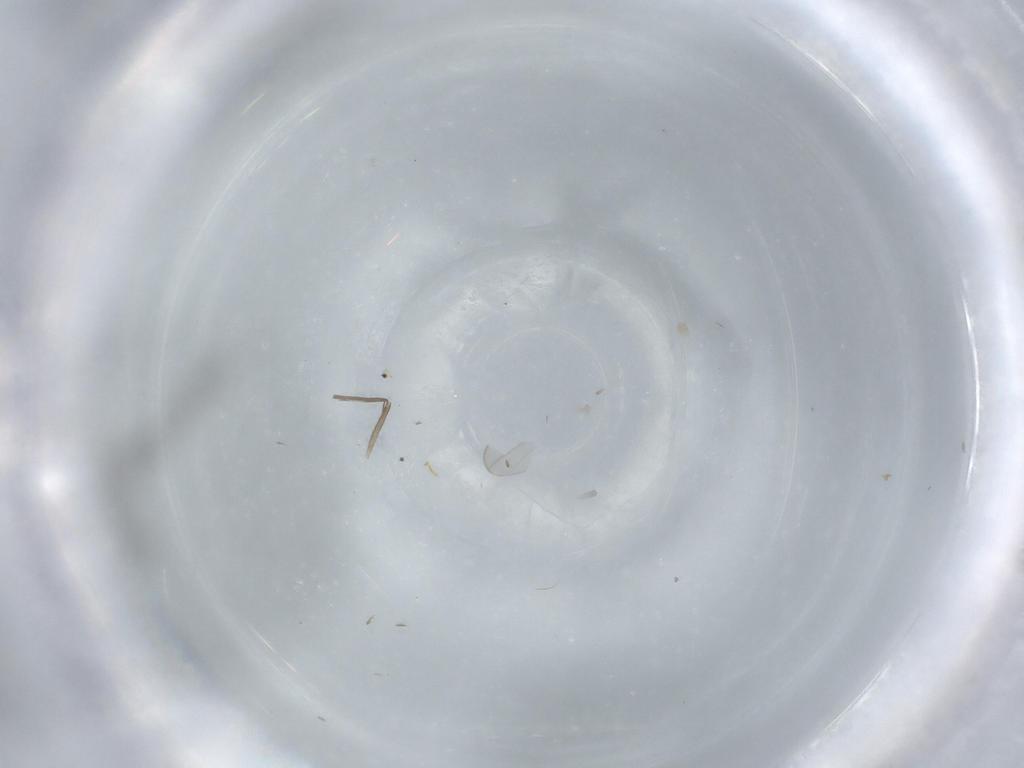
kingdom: Animalia
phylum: Arthropoda
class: Insecta
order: Diptera
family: Chironomidae
